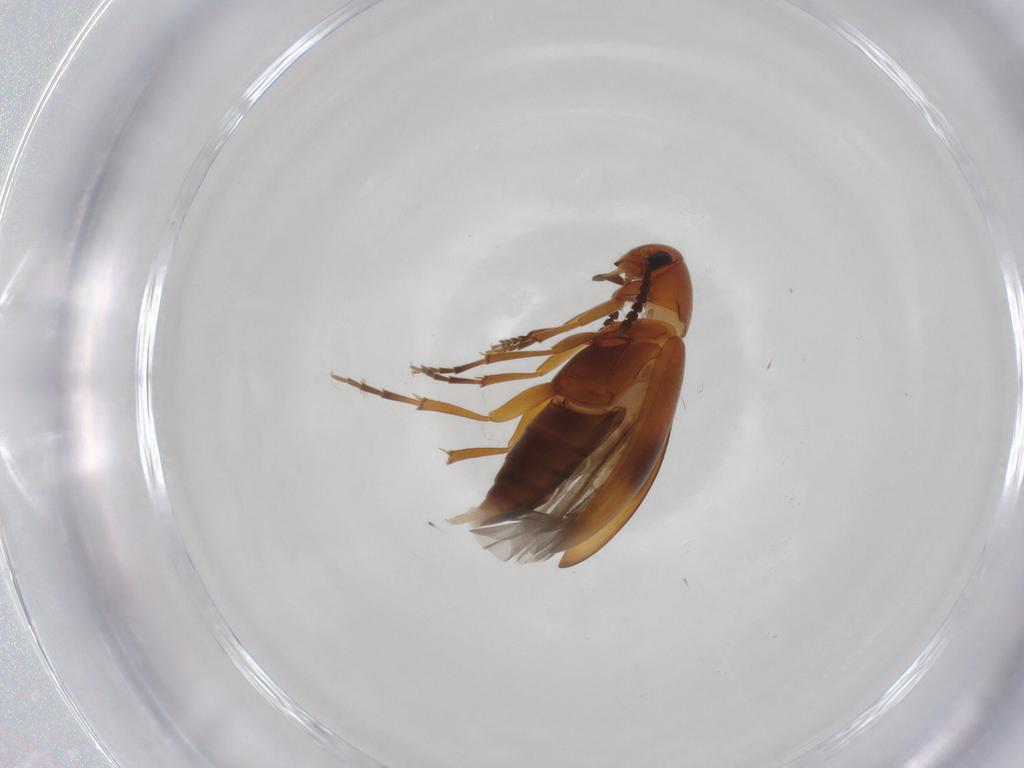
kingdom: Animalia
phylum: Arthropoda
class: Insecta
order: Coleoptera
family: Scraptiidae
